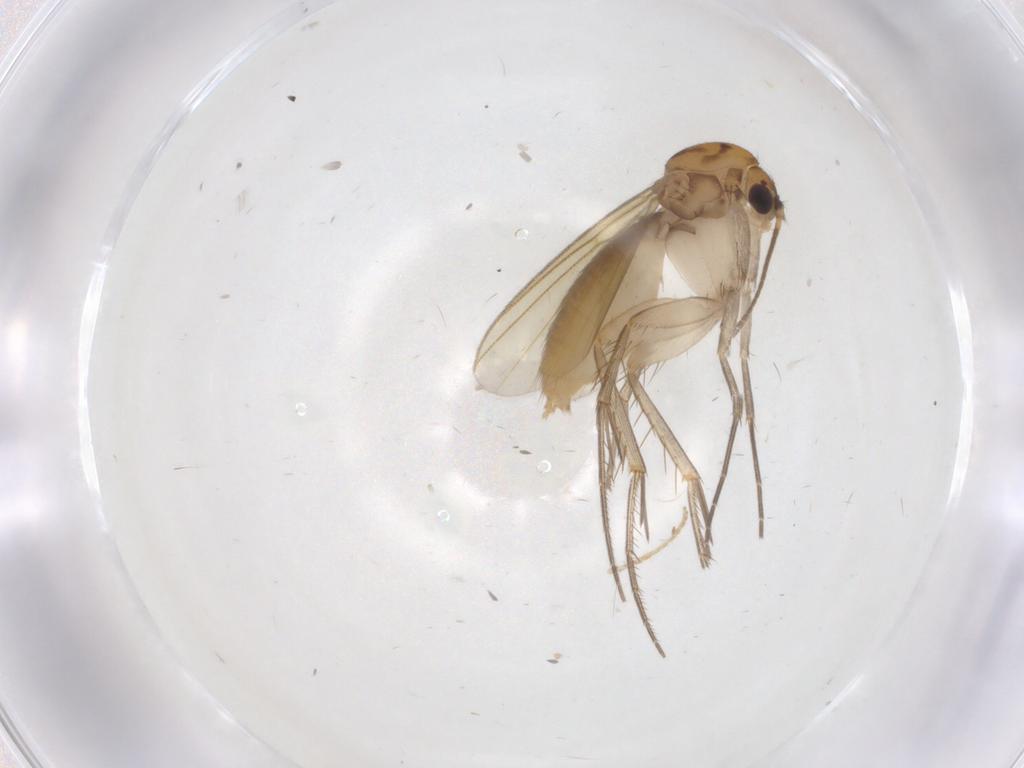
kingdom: Animalia
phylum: Arthropoda
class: Insecta
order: Diptera
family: Mycetophilidae
